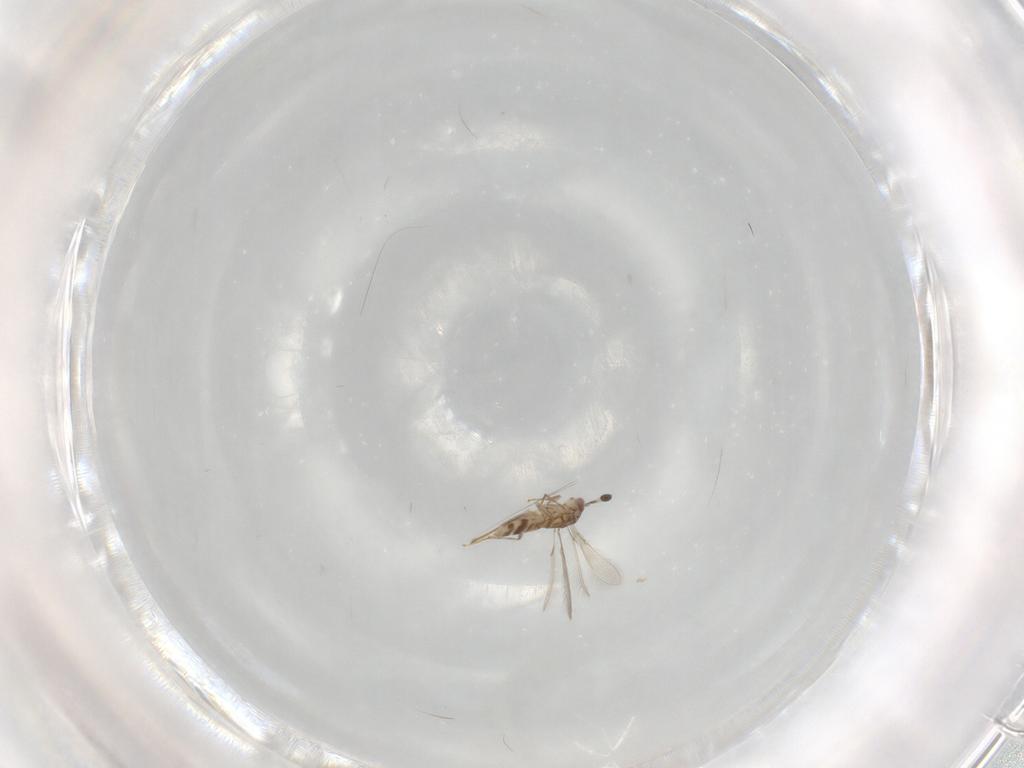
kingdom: Animalia
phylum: Arthropoda
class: Insecta
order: Hymenoptera
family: Mymaridae
